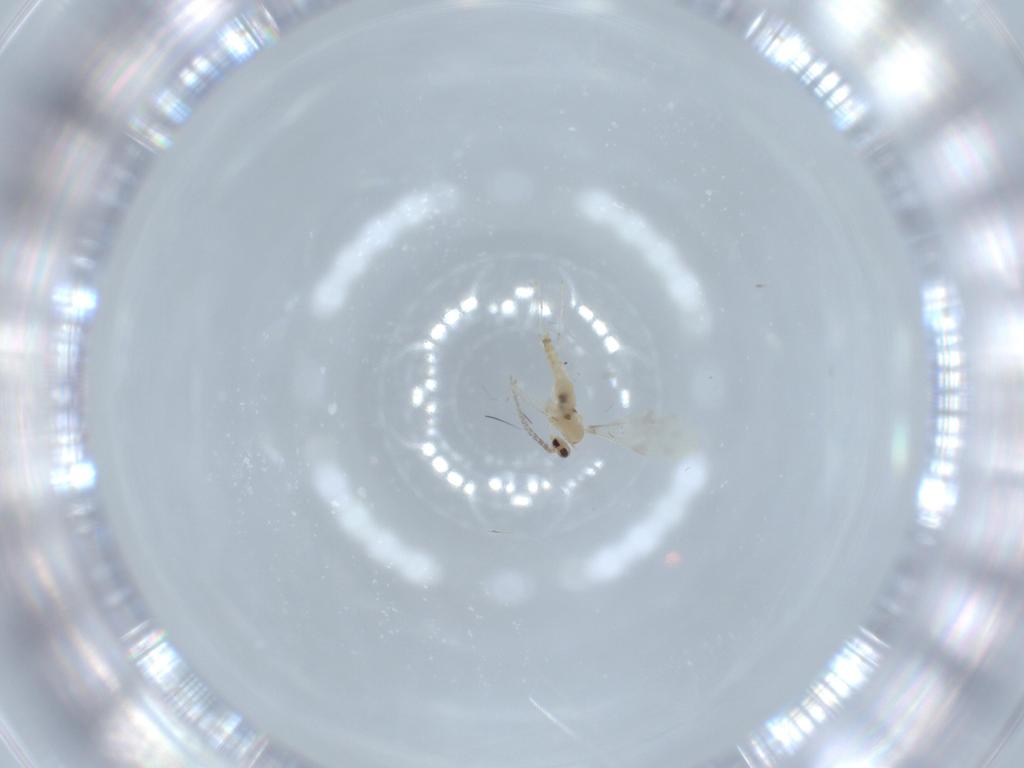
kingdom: Animalia
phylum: Arthropoda
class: Insecta
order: Diptera
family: Cecidomyiidae
